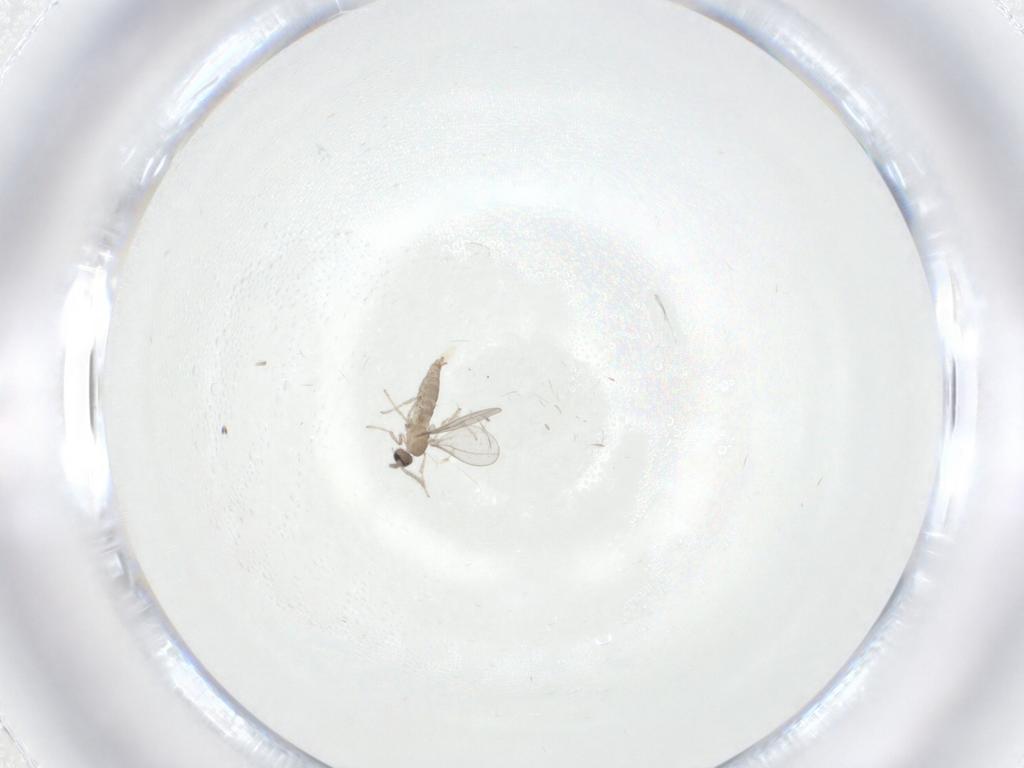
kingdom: Animalia
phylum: Arthropoda
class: Insecta
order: Diptera
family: Cecidomyiidae
